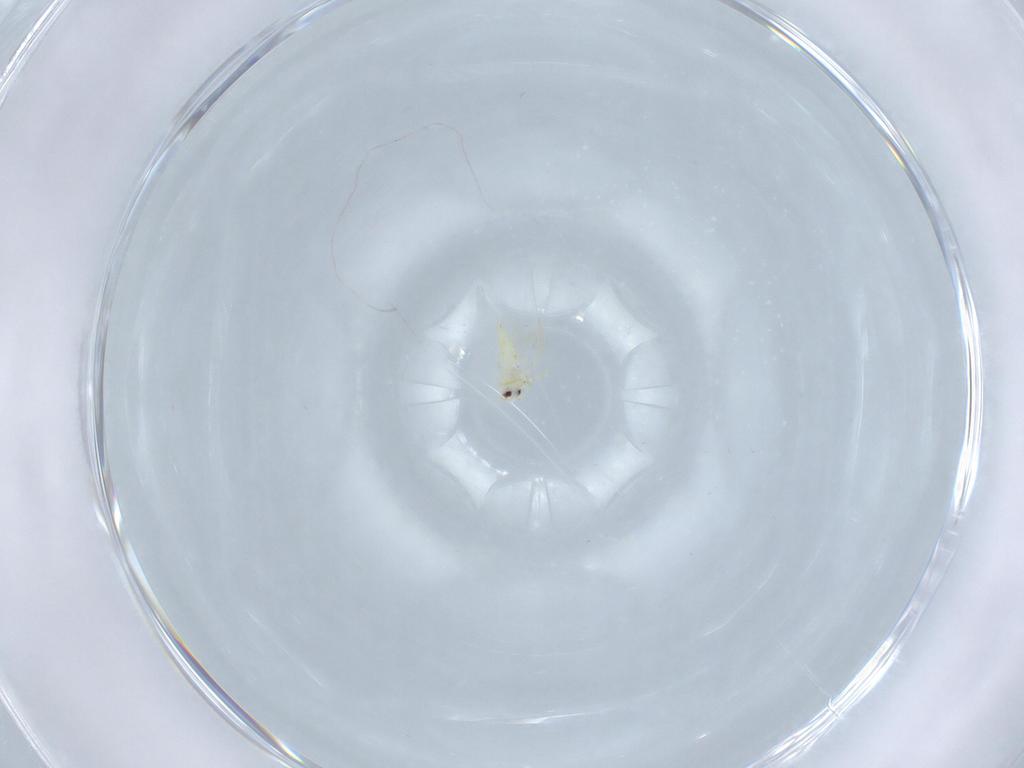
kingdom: Animalia
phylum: Arthropoda
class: Insecta
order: Hemiptera
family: Aleyrodidae
